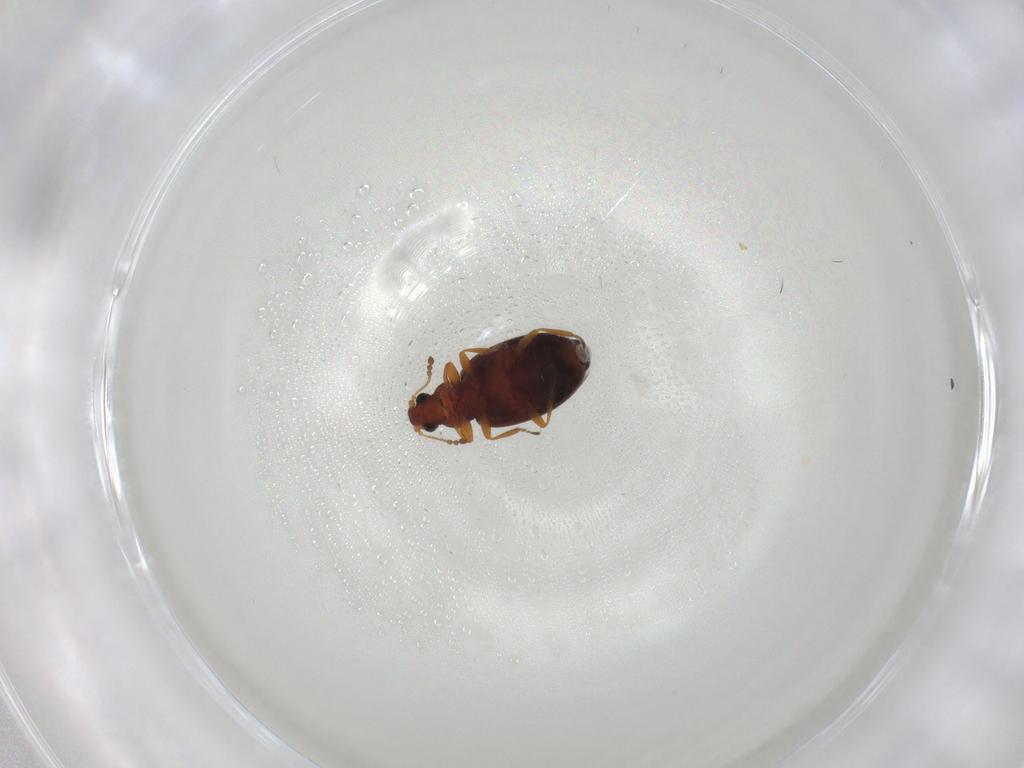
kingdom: Animalia
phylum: Arthropoda
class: Insecta
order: Coleoptera
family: Latridiidae
